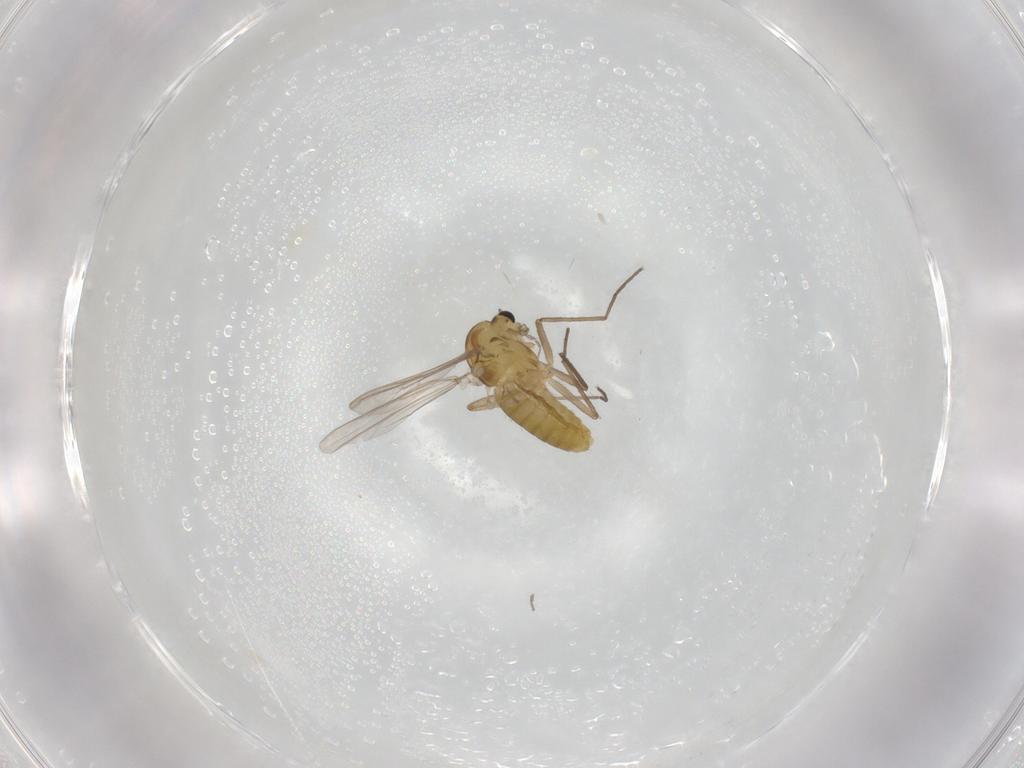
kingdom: Animalia
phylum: Arthropoda
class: Insecta
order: Diptera
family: Chironomidae
